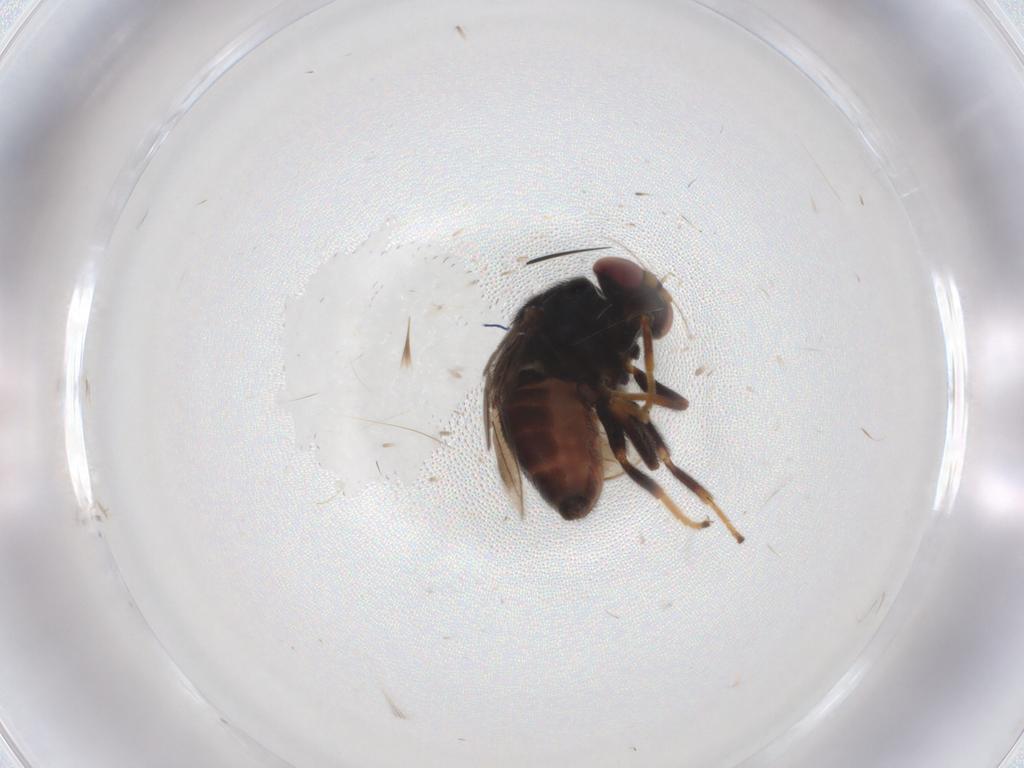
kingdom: Animalia
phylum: Arthropoda
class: Insecta
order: Diptera
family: Chloropidae
